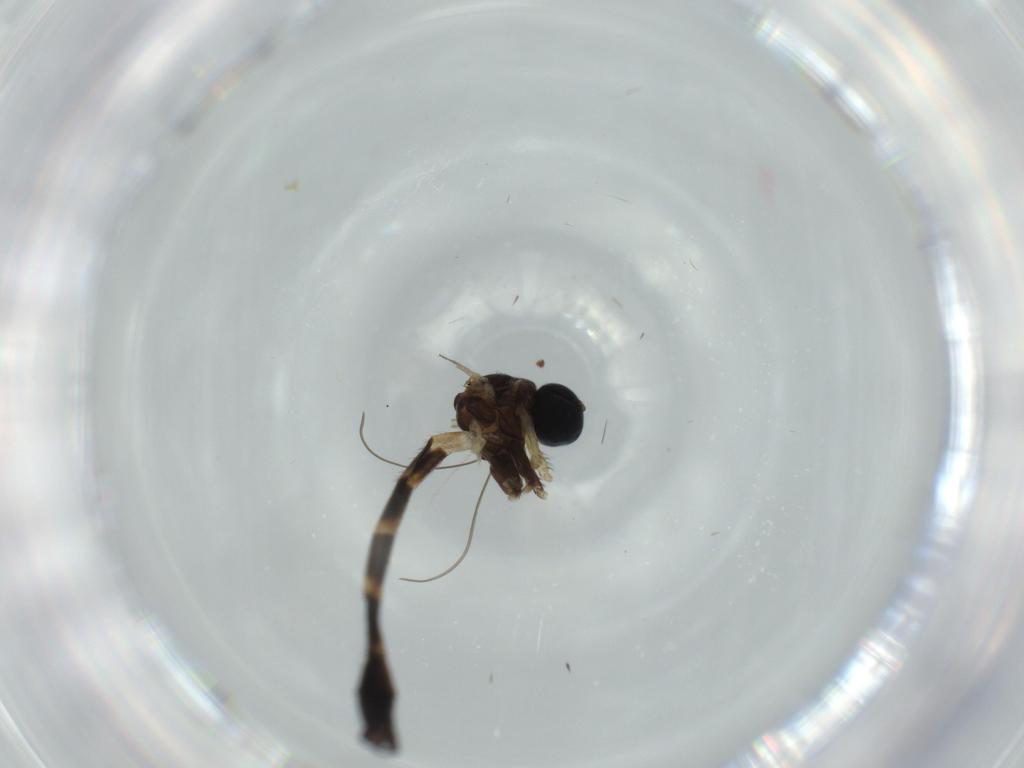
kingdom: Animalia
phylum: Arthropoda
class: Insecta
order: Diptera
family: Keroplatidae
